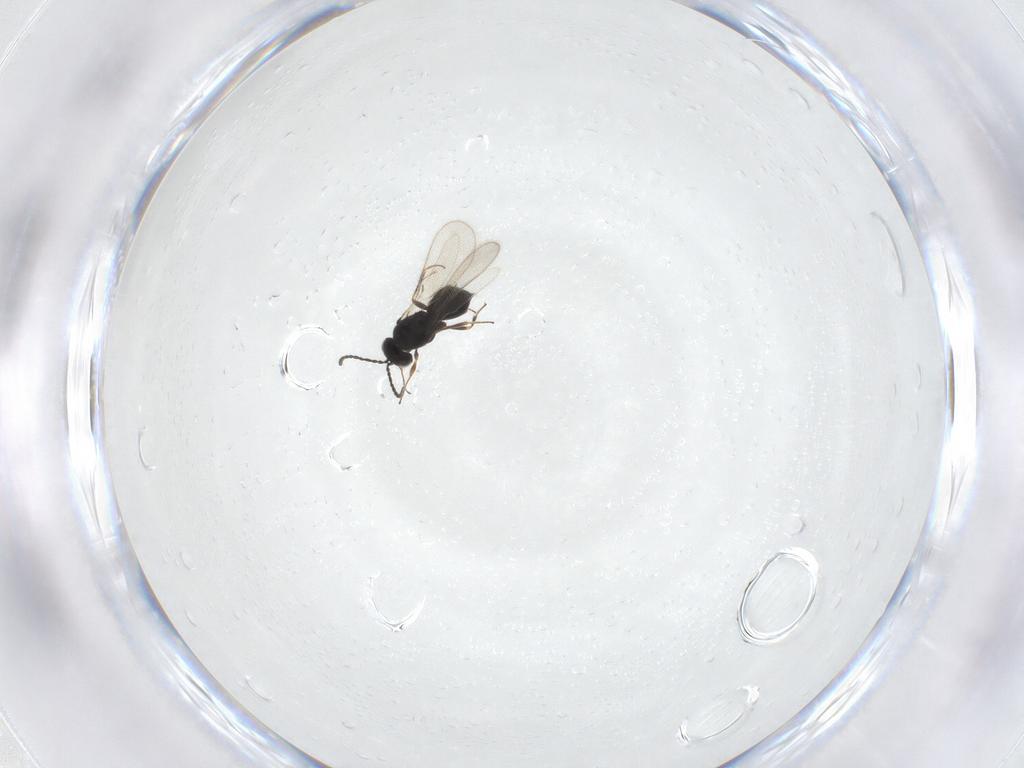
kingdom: Animalia
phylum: Arthropoda
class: Insecta
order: Hymenoptera
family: Scelionidae
